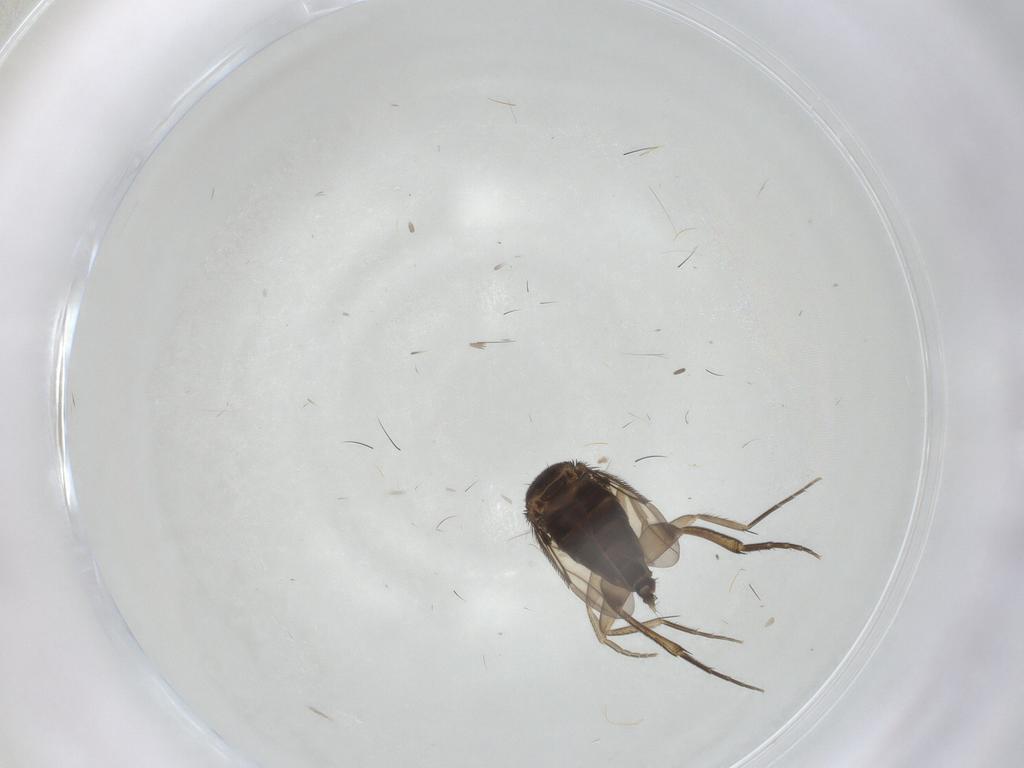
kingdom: Animalia
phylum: Arthropoda
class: Insecta
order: Diptera
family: Phoridae
